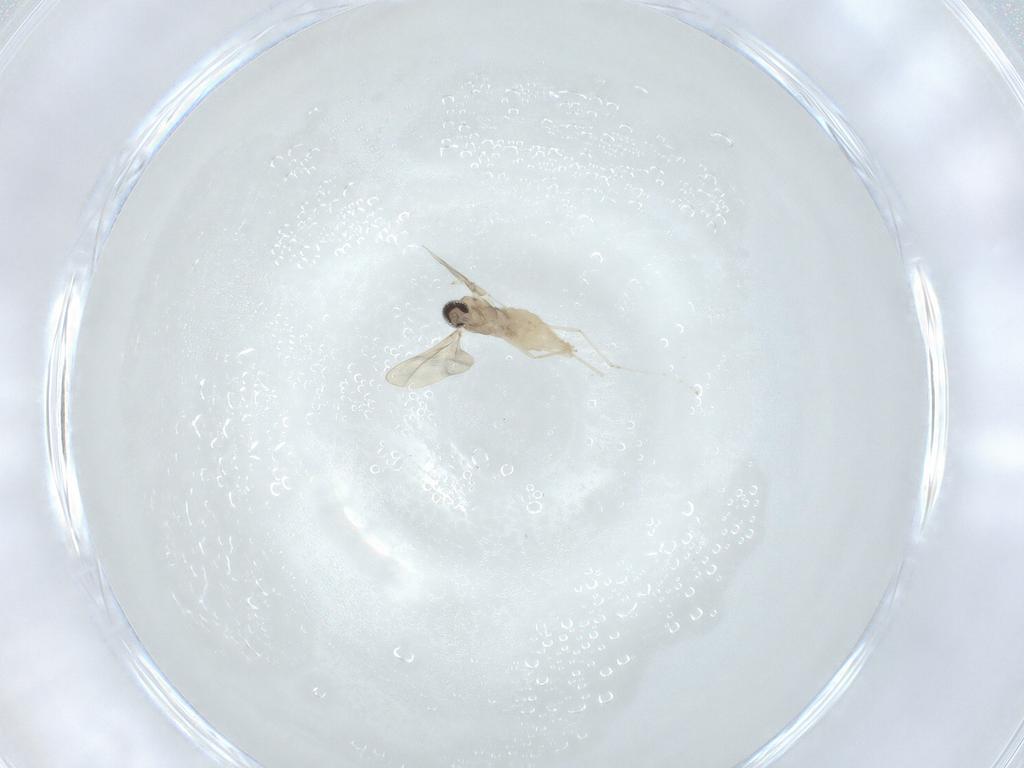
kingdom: Animalia
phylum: Arthropoda
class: Insecta
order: Diptera
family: Cecidomyiidae
